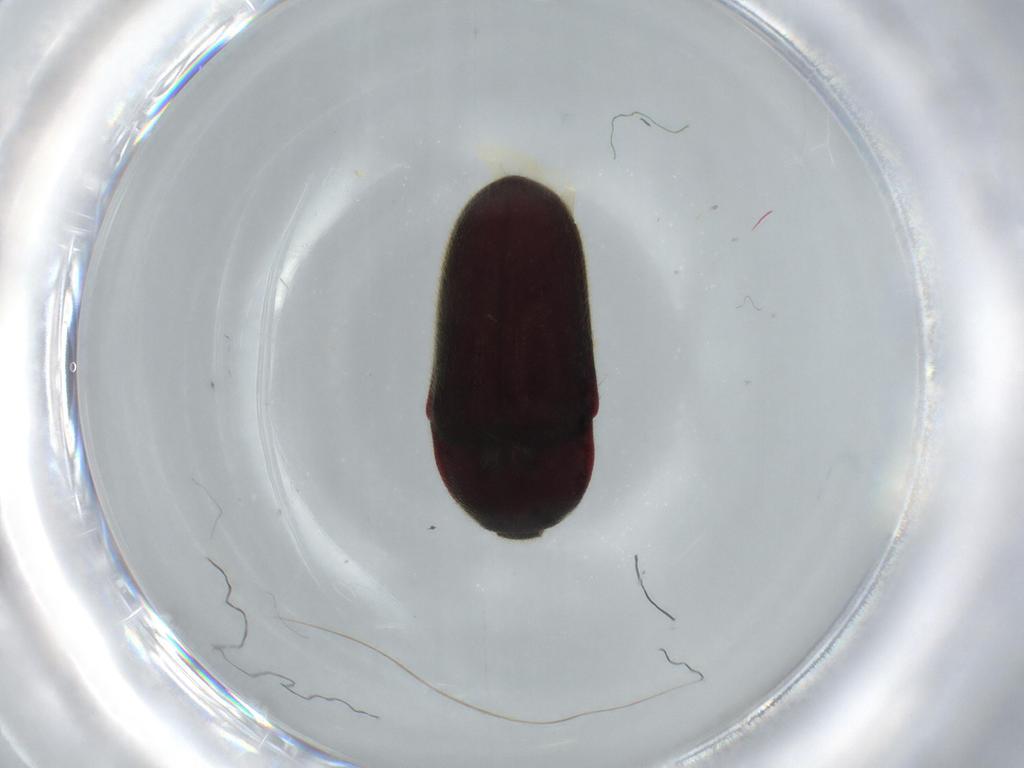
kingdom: Animalia
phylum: Arthropoda
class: Insecta
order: Coleoptera
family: Throscidae
